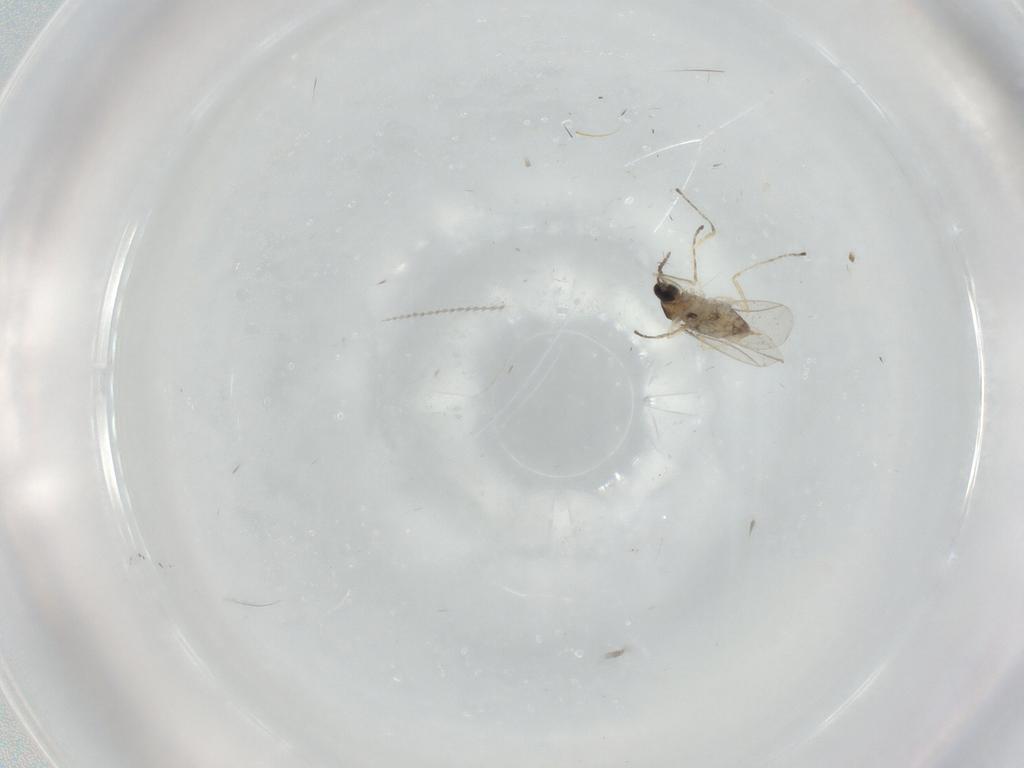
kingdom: Animalia
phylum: Arthropoda
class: Insecta
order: Diptera
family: Cecidomyiidae
